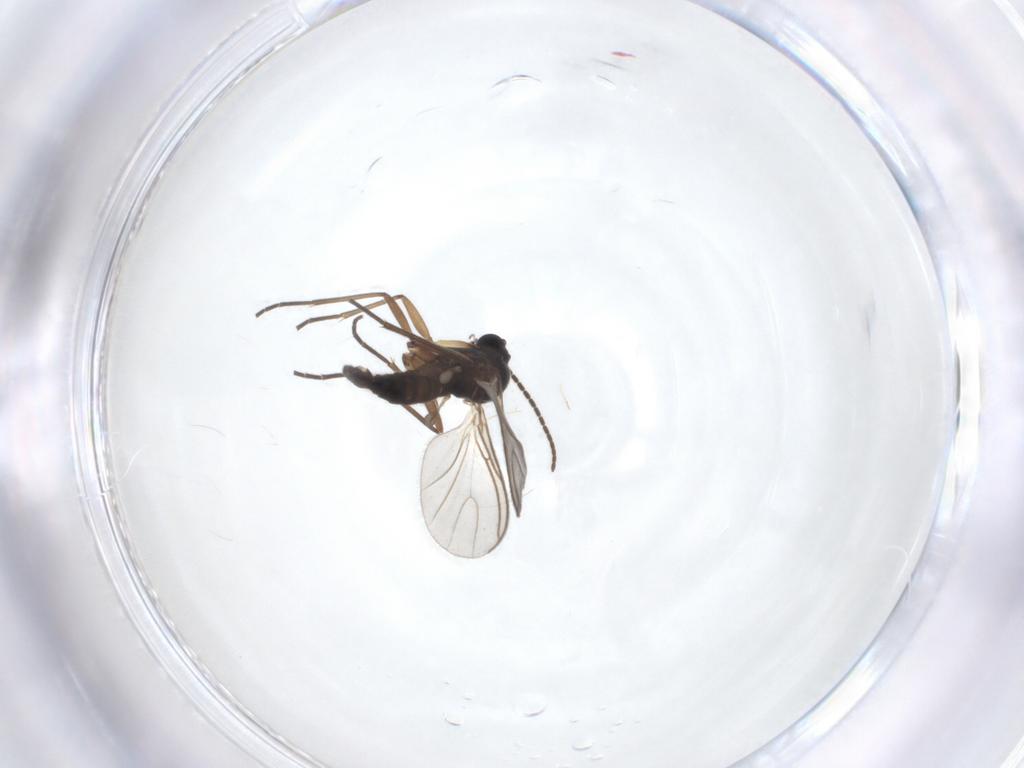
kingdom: Animalia
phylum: Arthropoda
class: Insecta
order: Diptera
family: Sciaridae
